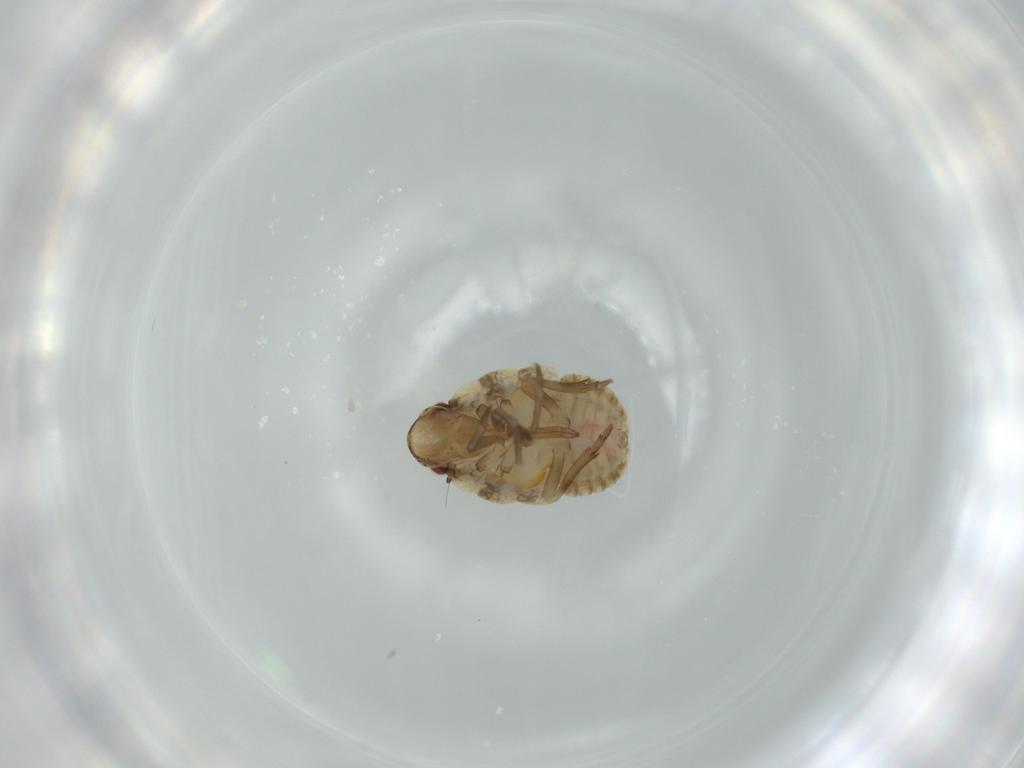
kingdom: Animalia
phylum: Arthropoda
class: Insecta
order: Hemiptera
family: Flatidae
